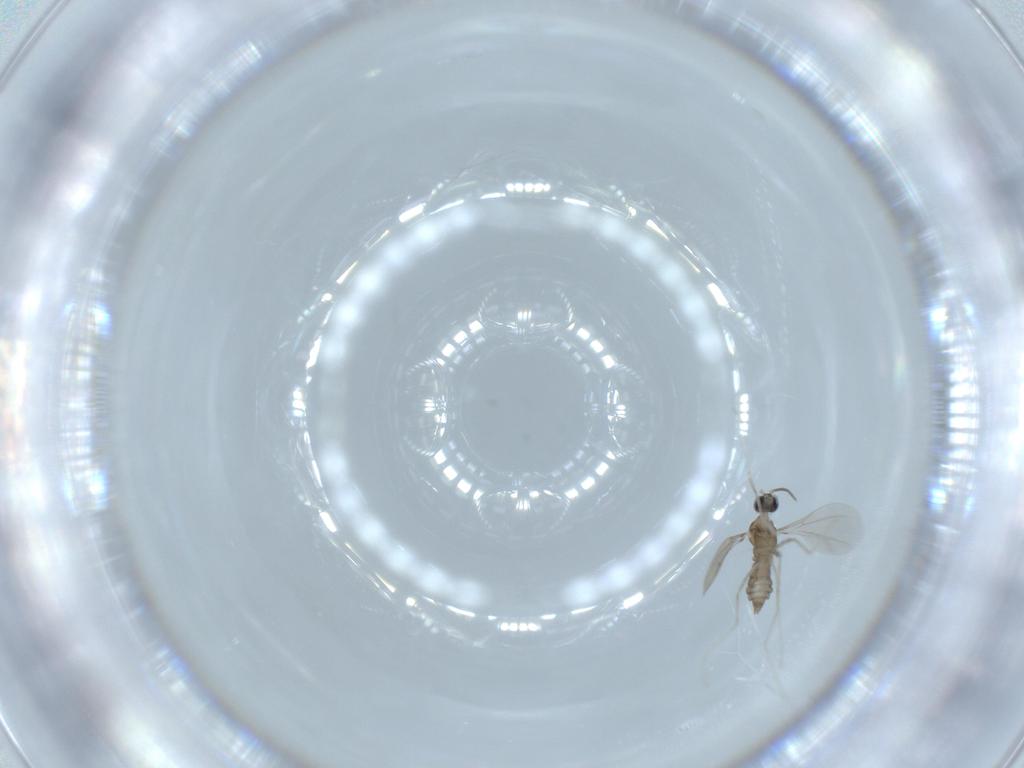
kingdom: Animalia
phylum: Arthropoda
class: Insecta
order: Diptera
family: Cecidomyiidae
